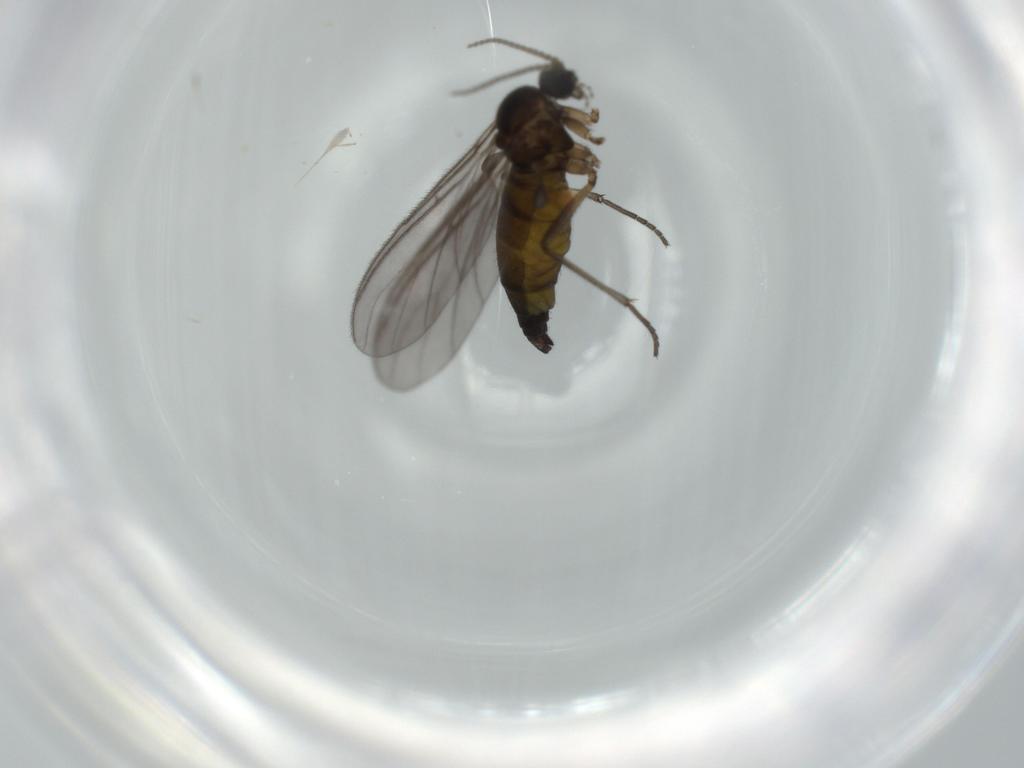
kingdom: Animalia
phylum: Arthropoda
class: Insecta
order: Diptera
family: Sciaridae
